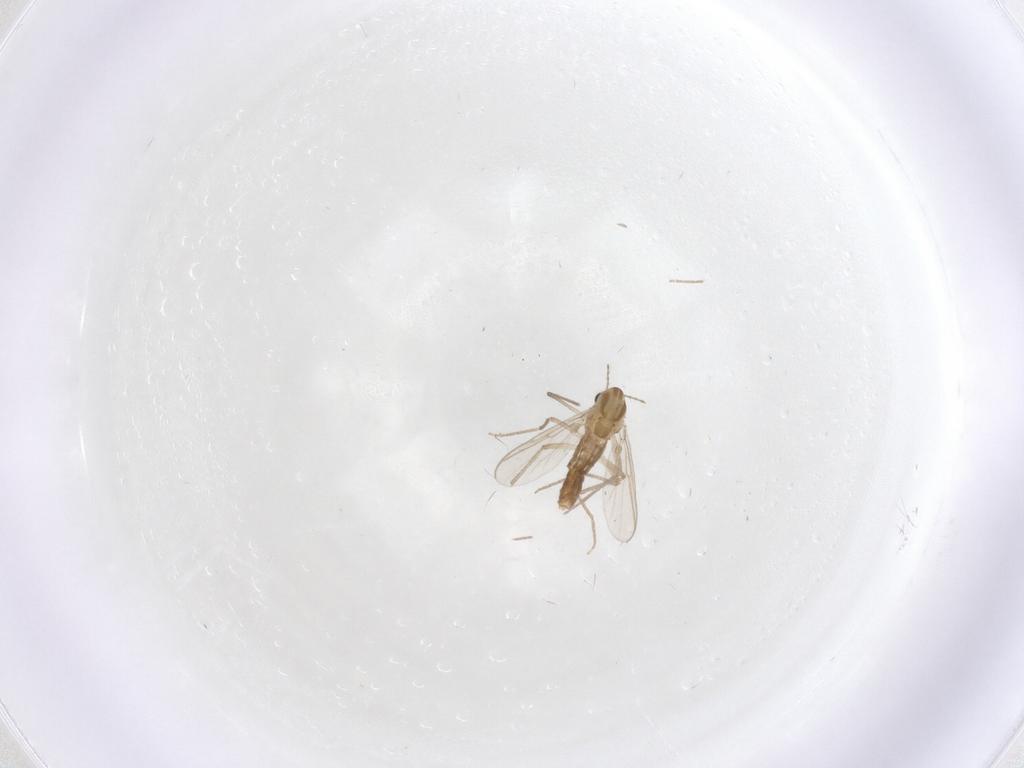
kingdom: Animalia
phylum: Arthropoda
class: Insecta
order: Diptera
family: Chironomidae
